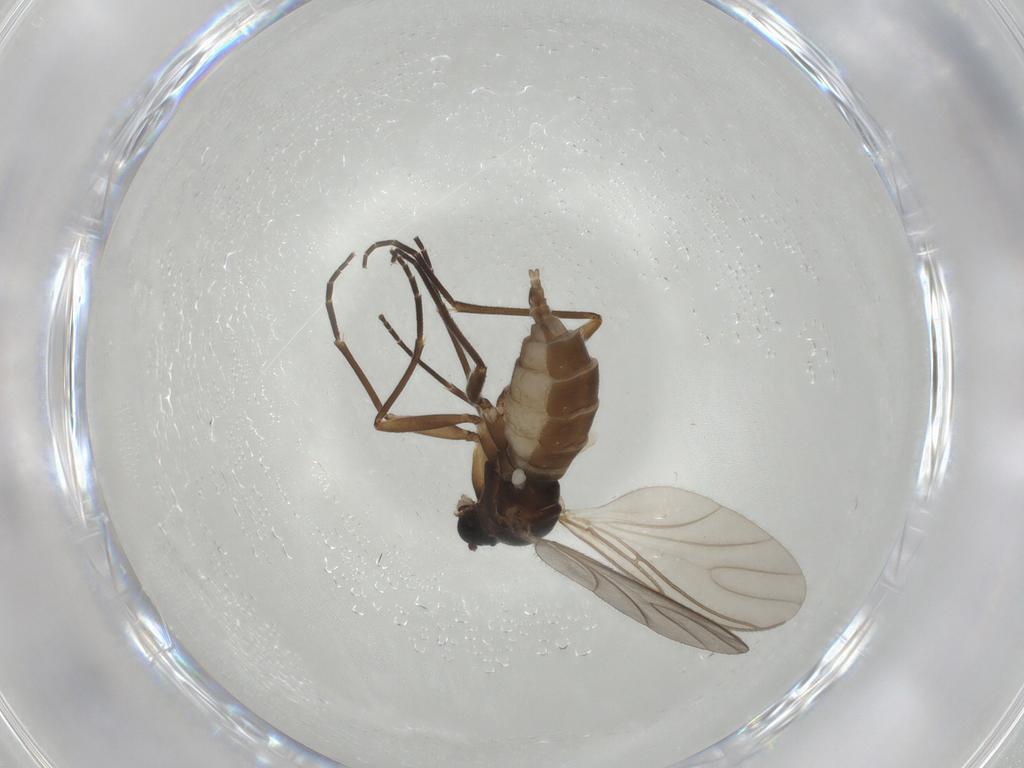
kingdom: Animalia
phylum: Arthropoda
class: Insecta
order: Diptera
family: Sciaridae
